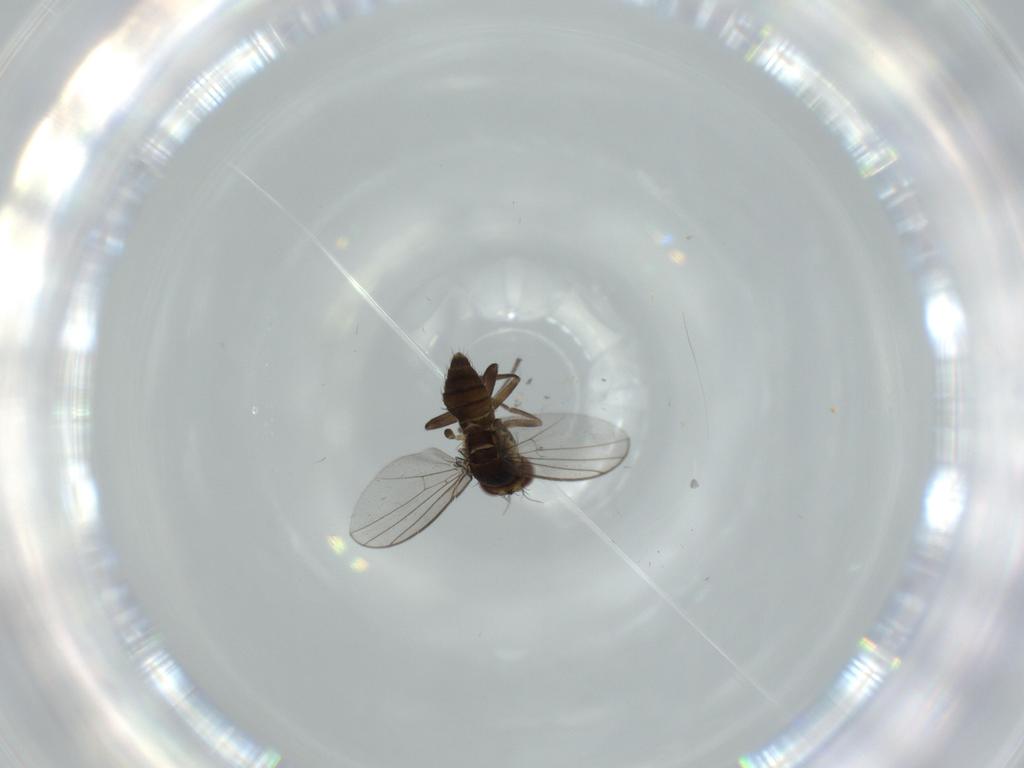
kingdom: Animalia
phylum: Arthropoda
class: Insecta
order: Diptera
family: Agromyzidae
